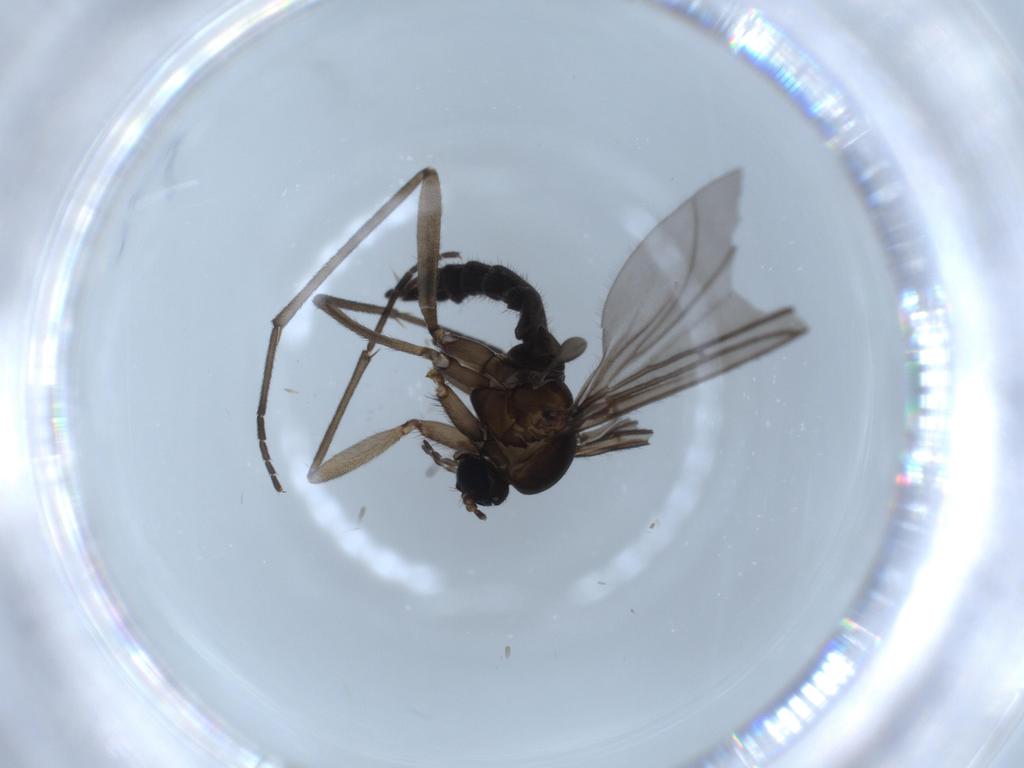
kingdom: Animalia
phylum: Arthropoda
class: Insecta
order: Diptera
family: Sciaridae
